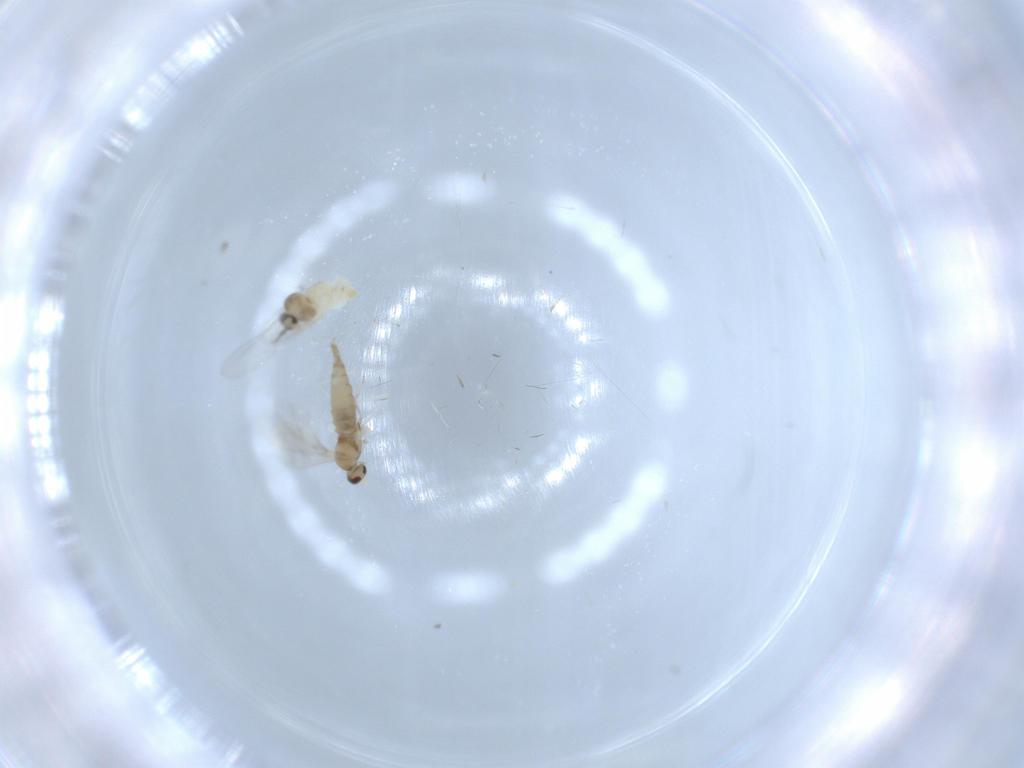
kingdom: Animalia
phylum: Arthropoda
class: Insecta
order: Diptera
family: Cecidomyiidae
